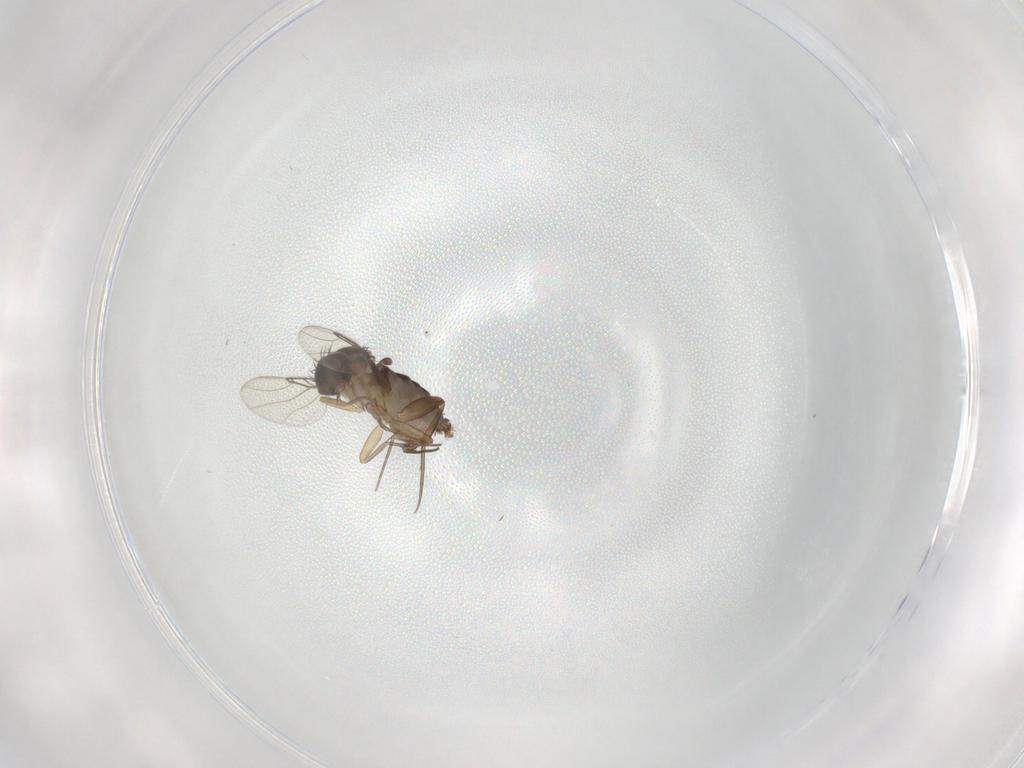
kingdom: Animalia
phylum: Arthropoda
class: Insecta
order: Diptera
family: Phoridae
